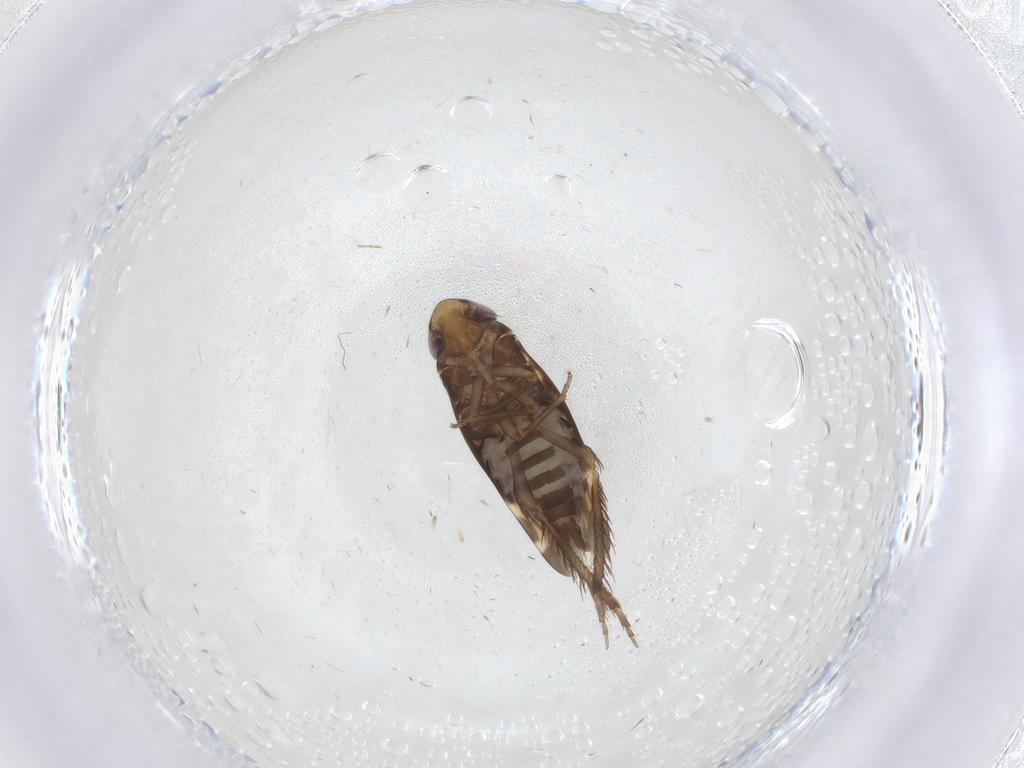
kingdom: Animalia
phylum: Arthropoda
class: Insecta
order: Hemiptera
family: Cicadellidae
